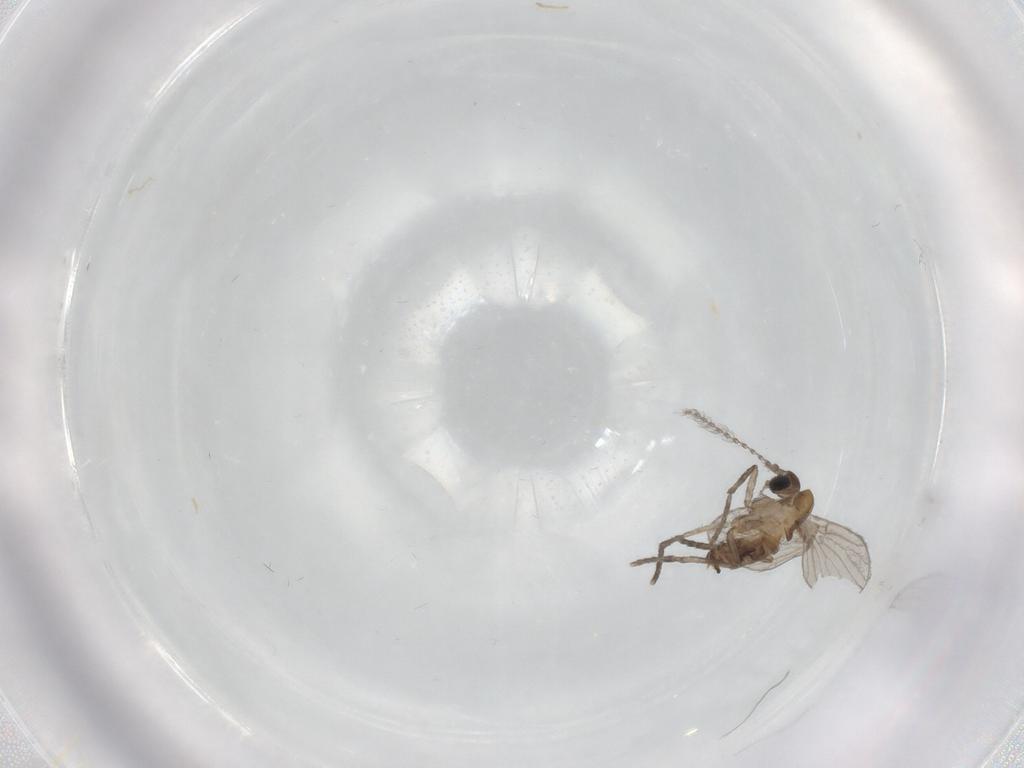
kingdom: Animalia
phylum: Arthropoda
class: Insecta
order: Diptera
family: Psychodidae
